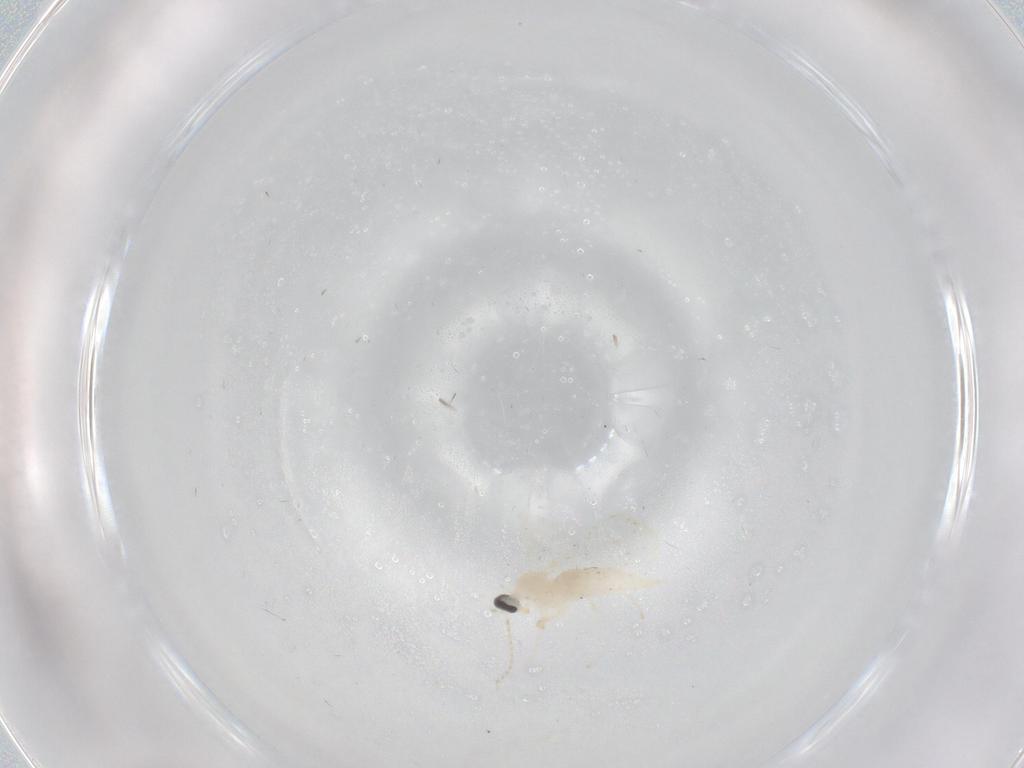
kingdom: Animalia
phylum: Arthropoda
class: Insecta
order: Diptera
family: Cecidomyiidae
